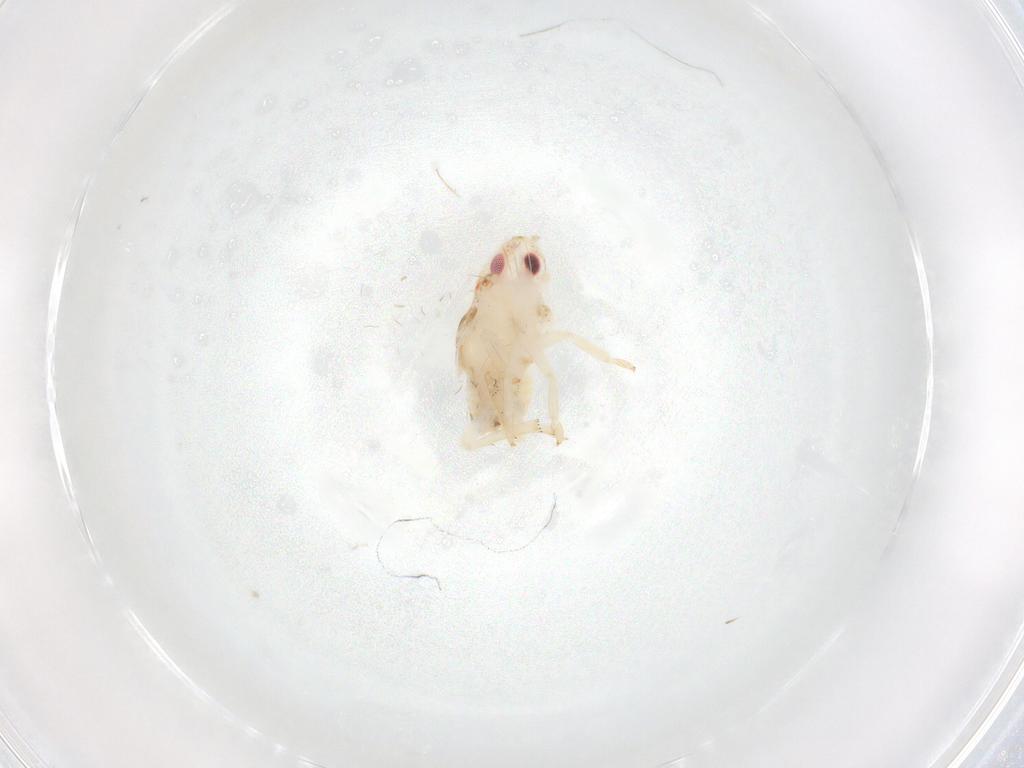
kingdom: Animalia
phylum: Arthropoda
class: Insecta
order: Hemiptera
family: Flatidae
